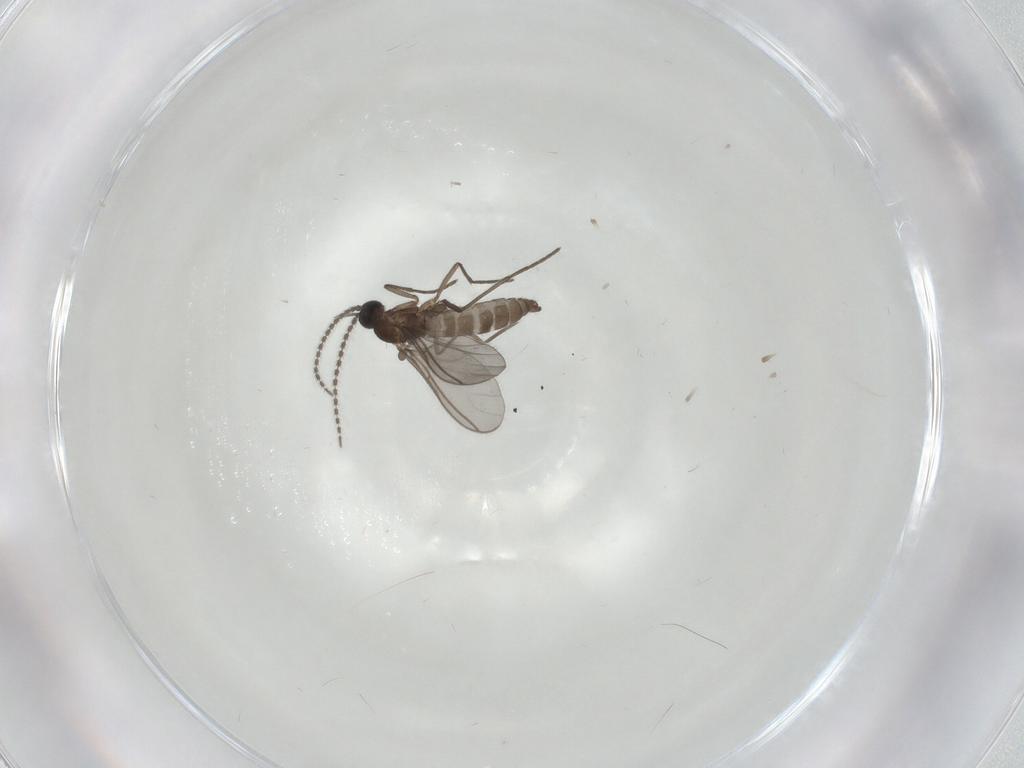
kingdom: Animalia
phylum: Arthropoda
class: Insecta
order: Diptera
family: Sciaridae
